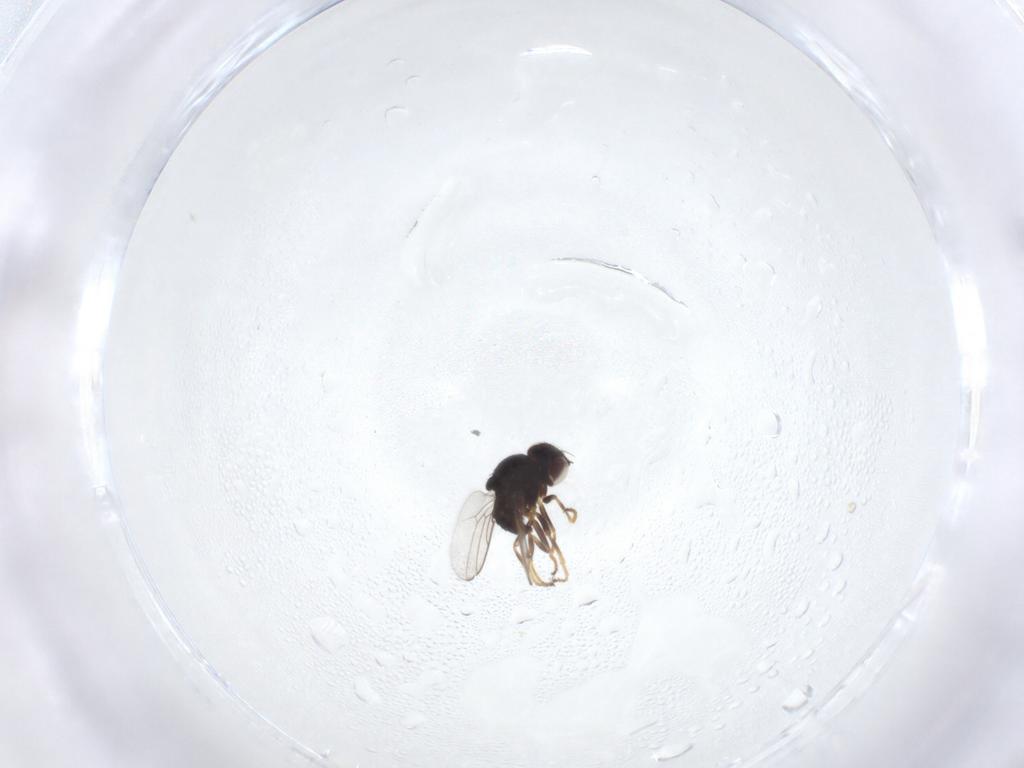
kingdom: Animalia
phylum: Arthropoda
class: Insecta
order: Diptera
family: Chloropidae
